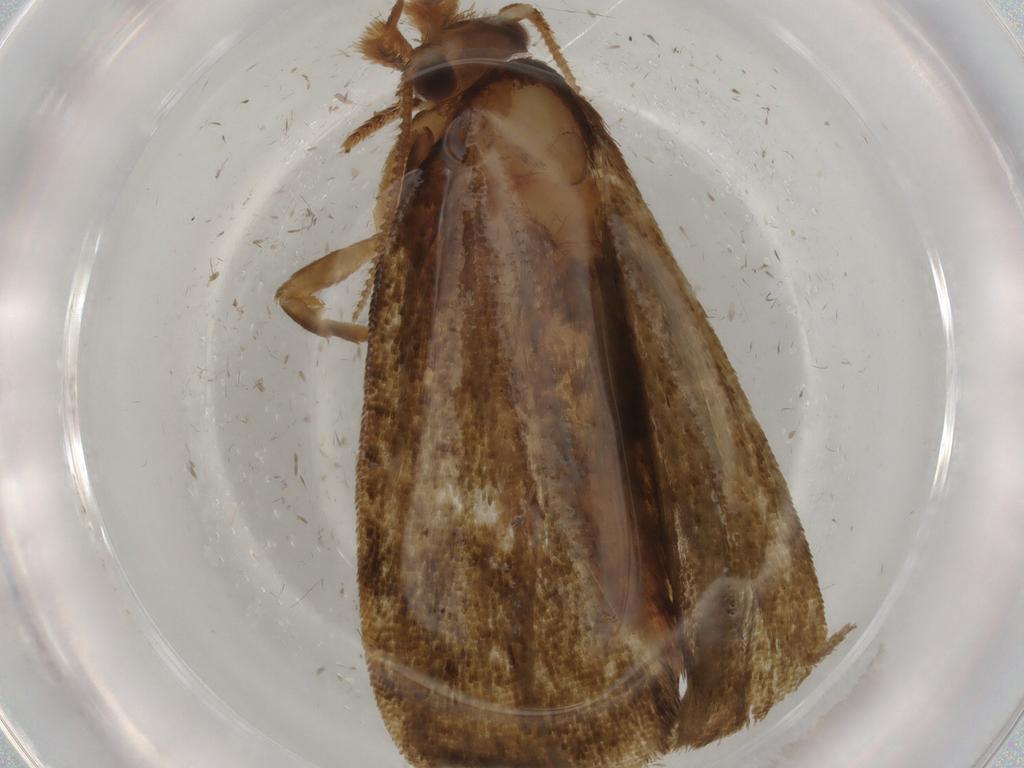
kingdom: Animalia
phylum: Arthropoda
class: Insecta
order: Lepidoptera
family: Geometridae
